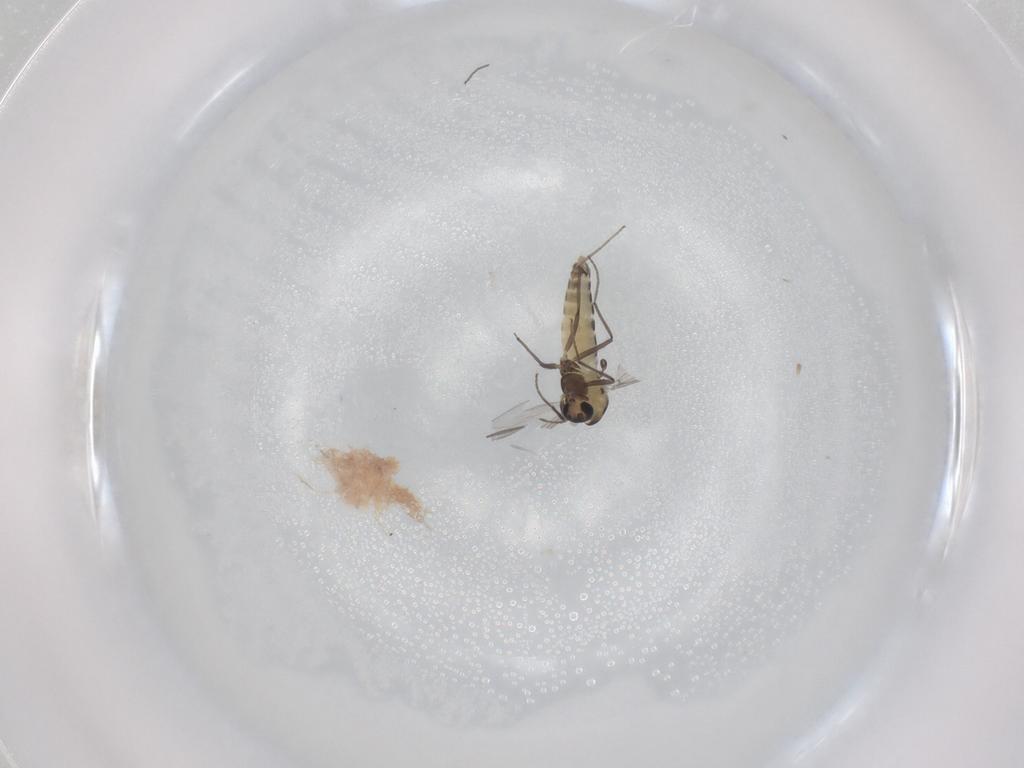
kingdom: Animalia
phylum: Arthropoda
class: Insecta
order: Diptera
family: Chironomidae
